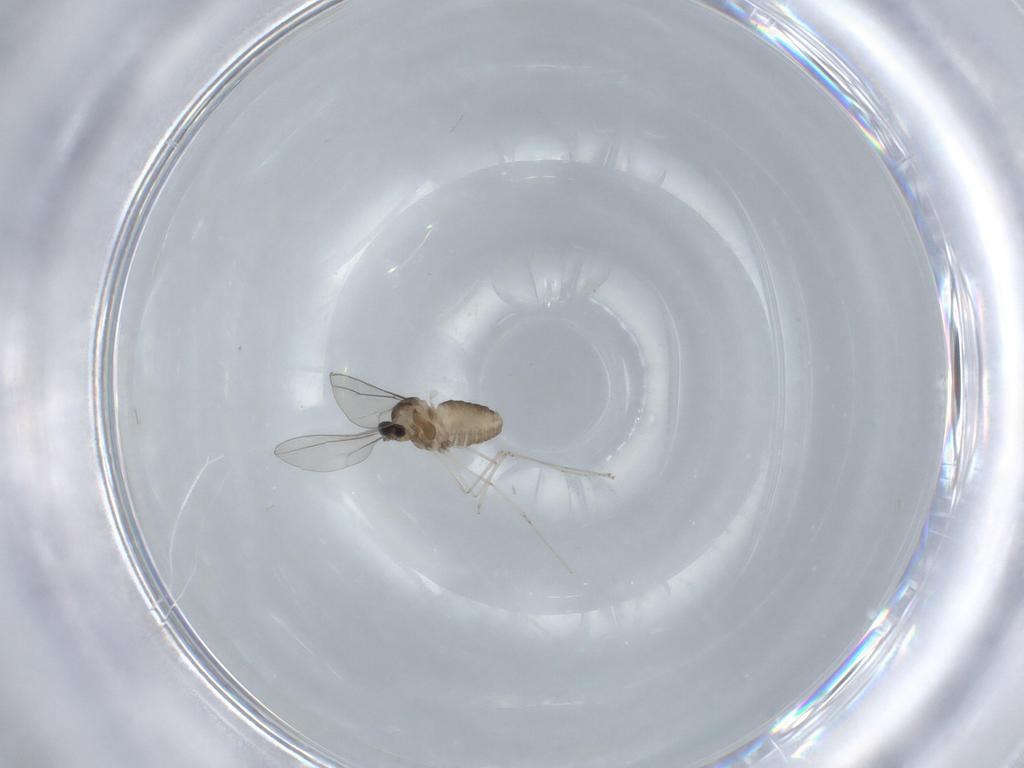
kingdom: Animalia
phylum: Arthropoda
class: Insecta
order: Diptera
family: Cecidomyiidae
